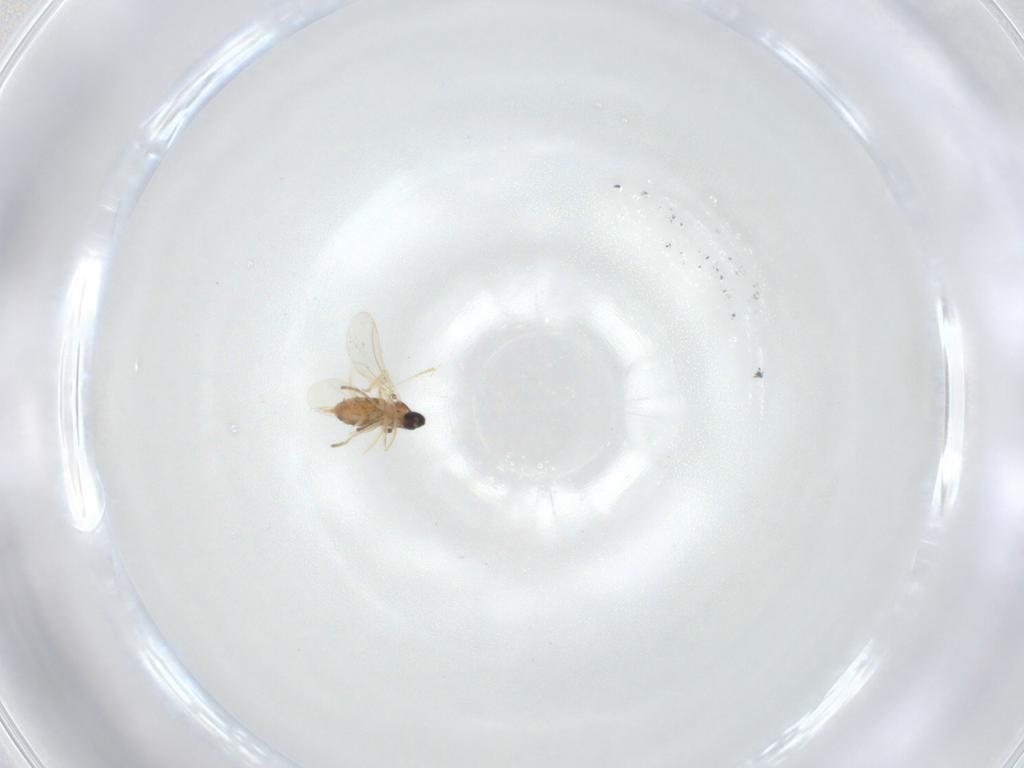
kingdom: Animalia
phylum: Arthropoda
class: Insecta
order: Diptera
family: Cecidomyiidae
